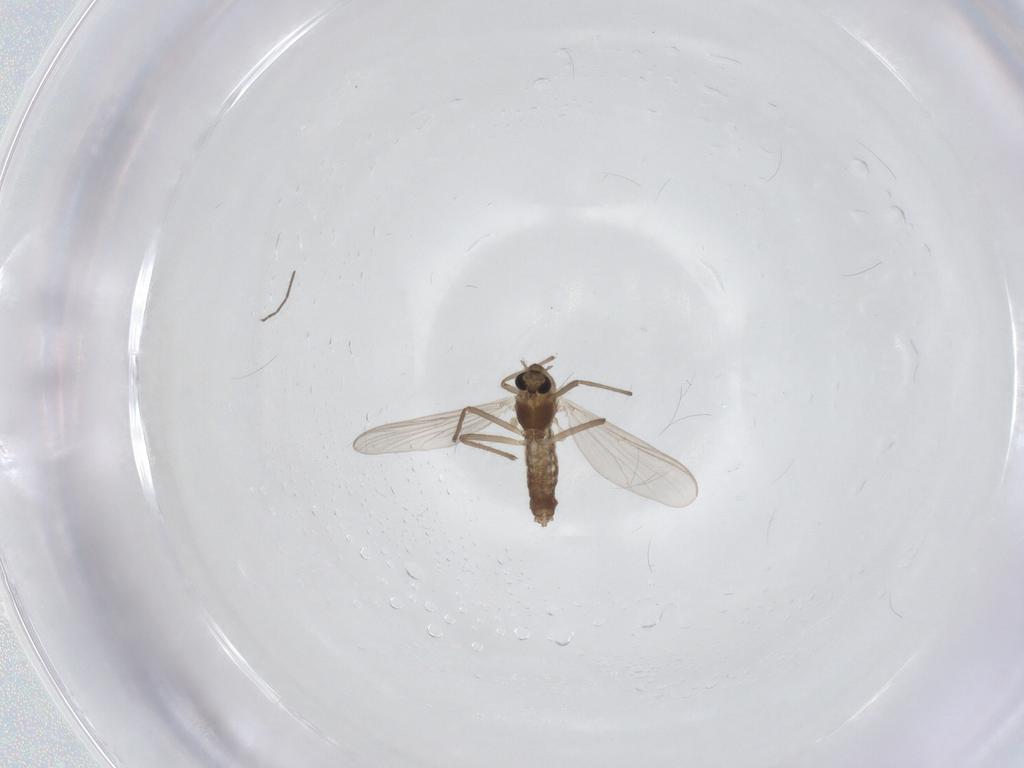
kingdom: Animalia
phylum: Arthropoda
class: Insecta
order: Diptera
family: Chironomidae
